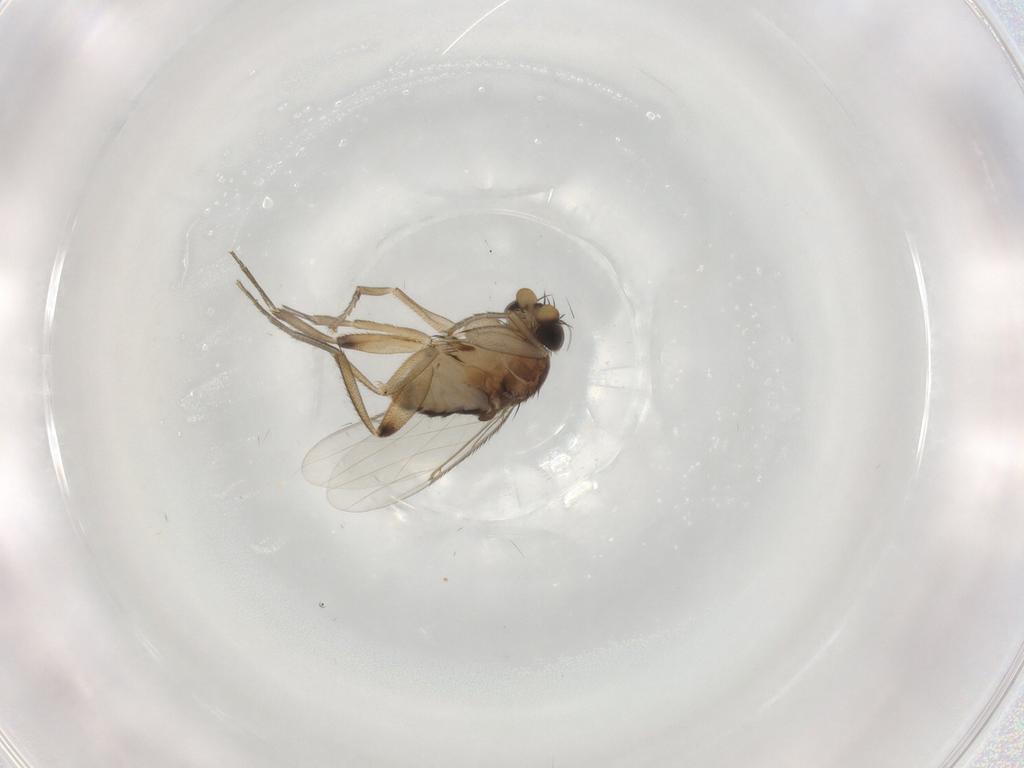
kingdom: Animalia
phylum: Arthropoda
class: Insecta
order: Diptera
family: Phoridae
